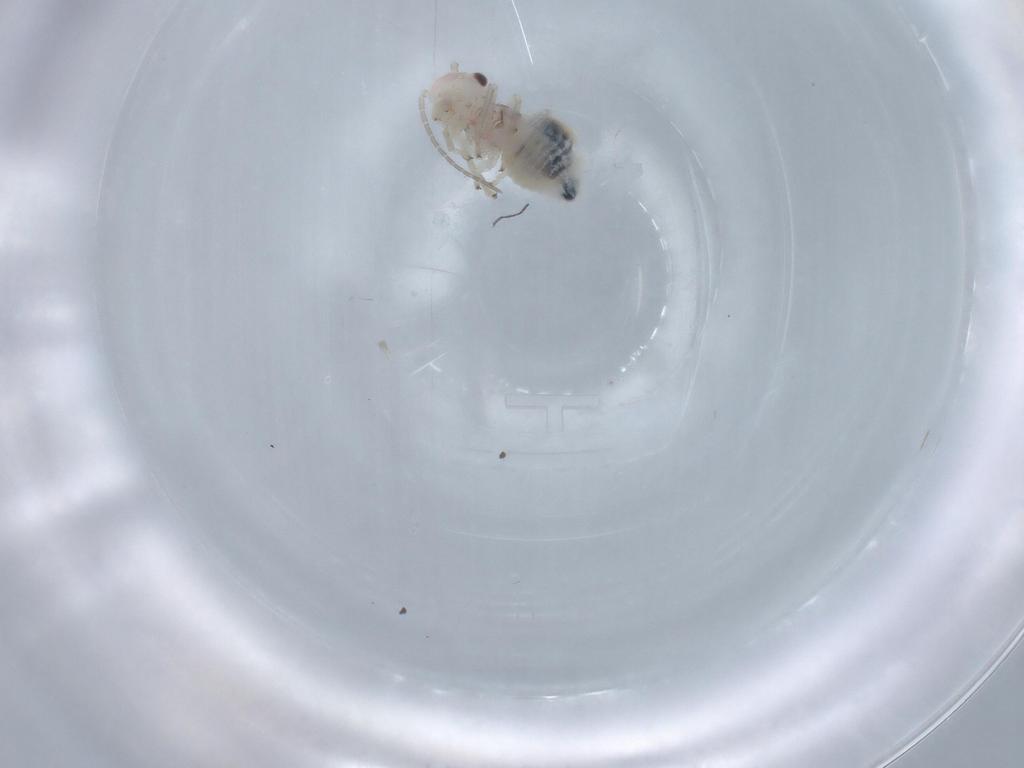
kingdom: Animalia
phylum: Arthropoda
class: Insecta
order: Psocodea
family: Amphipsocidae
